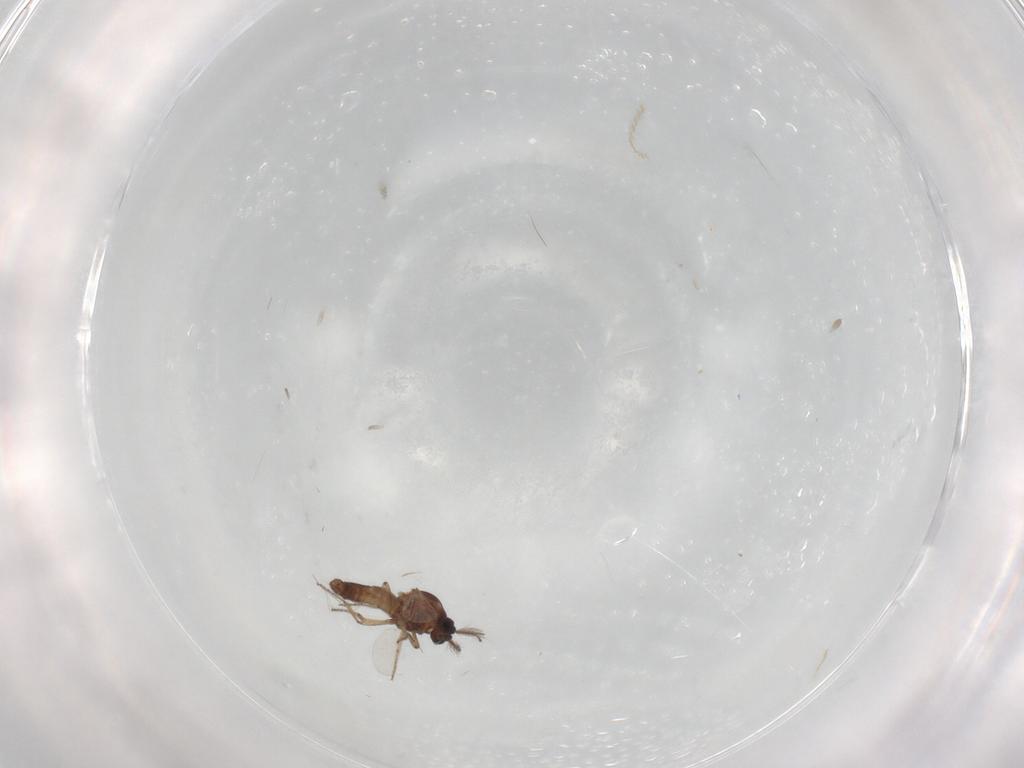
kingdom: Animalia
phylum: Arthropoda
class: Insecta
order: Diptera
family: Ceratopogonidae
